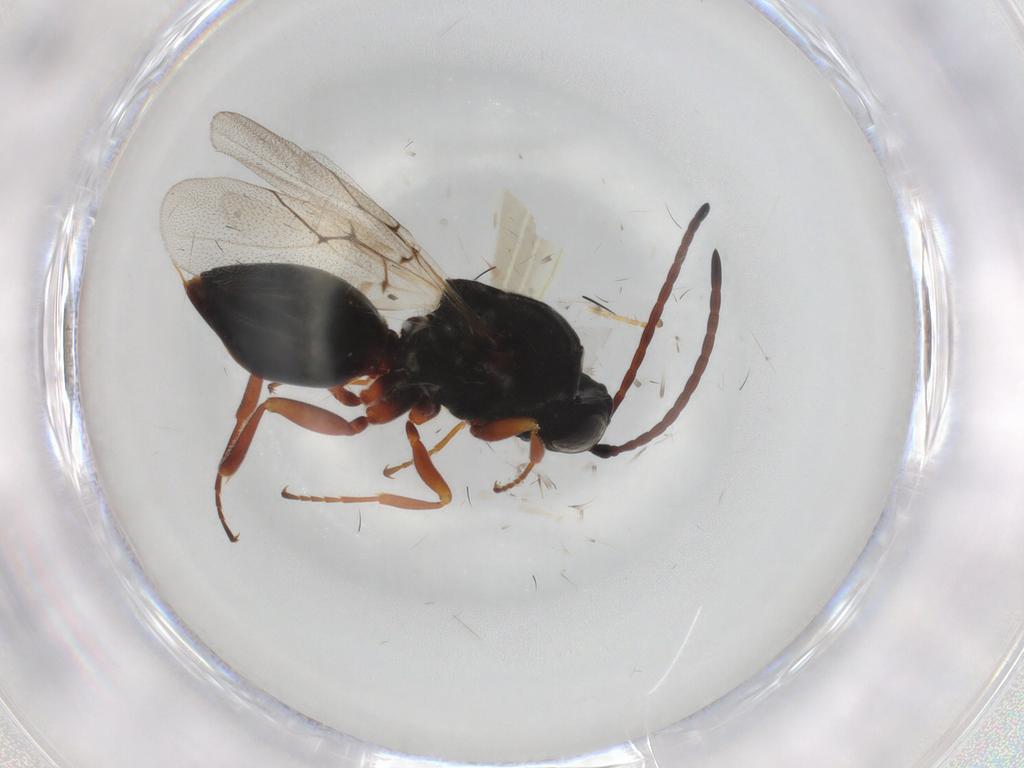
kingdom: Animalia
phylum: Arthropoda
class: Insecta
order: Hymenoptera
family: Figitidae
